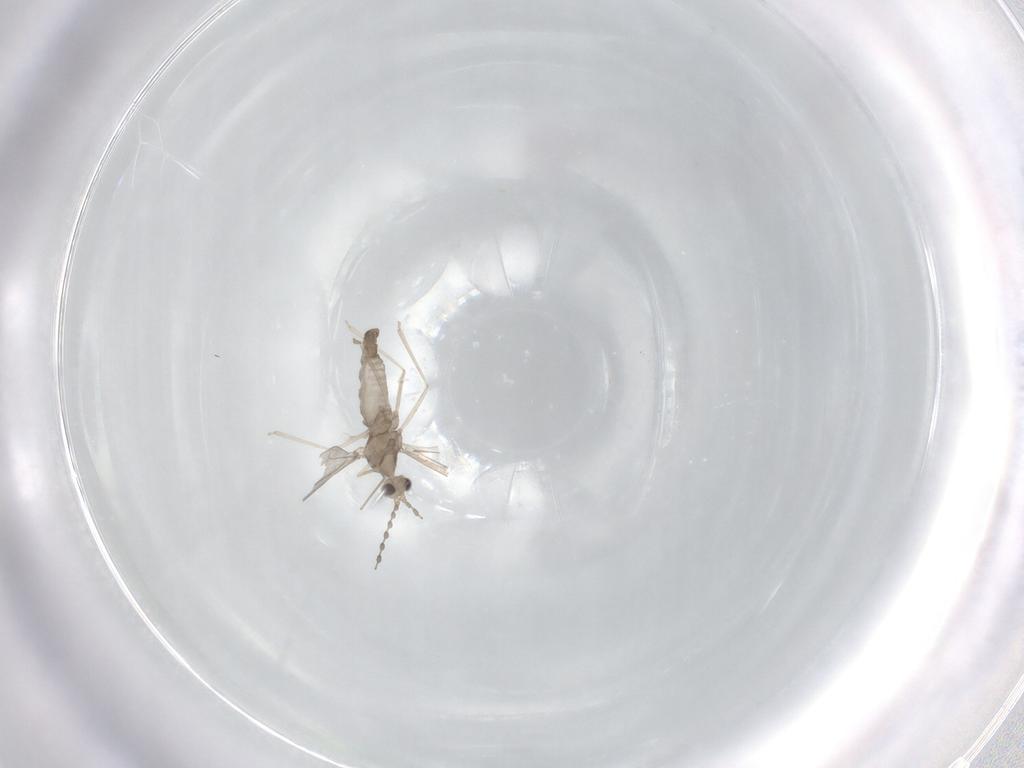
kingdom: Animalia
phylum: Arthropoda
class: Insecta
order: Diptera
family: Cecidomyiidae
